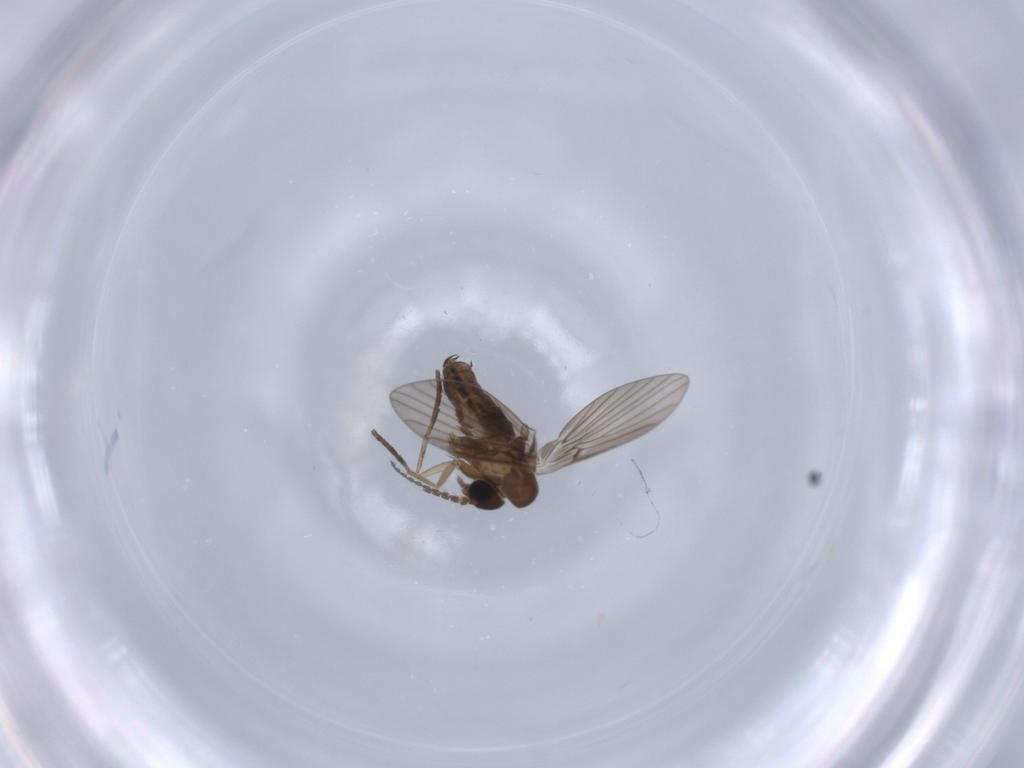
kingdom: Animalia
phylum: Arthropoda
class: Insecta
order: Diptera
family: Psychodidae
